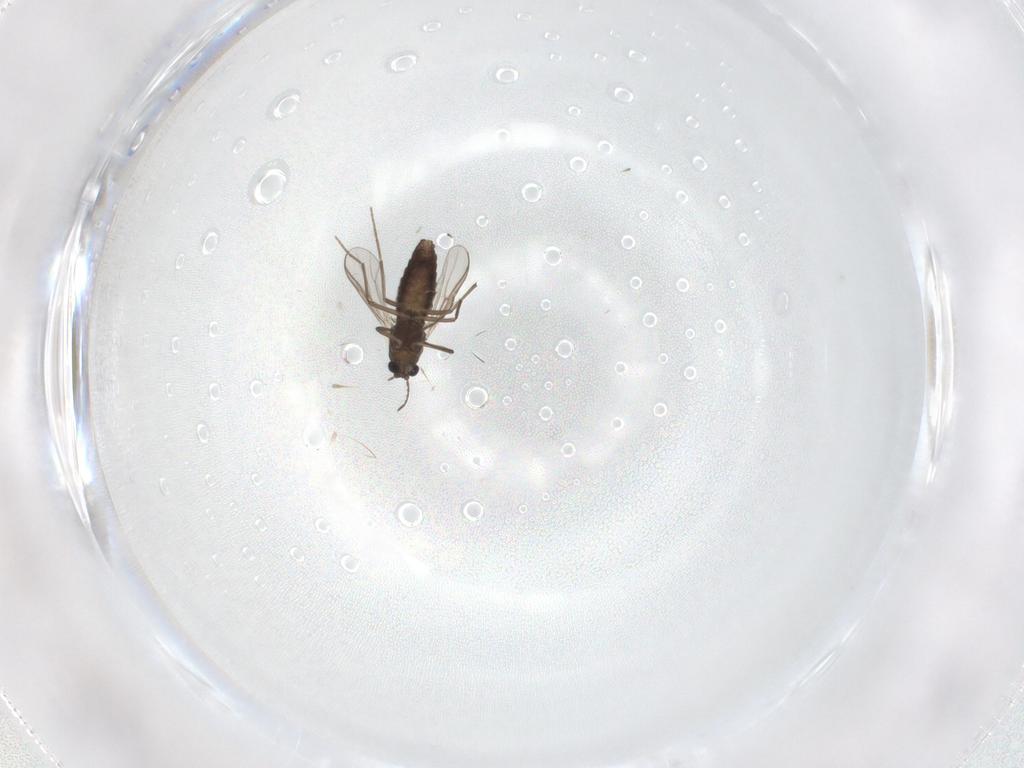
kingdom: Animalia
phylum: Arthropoda
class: Insecta
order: Diptera
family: Chironomidae
